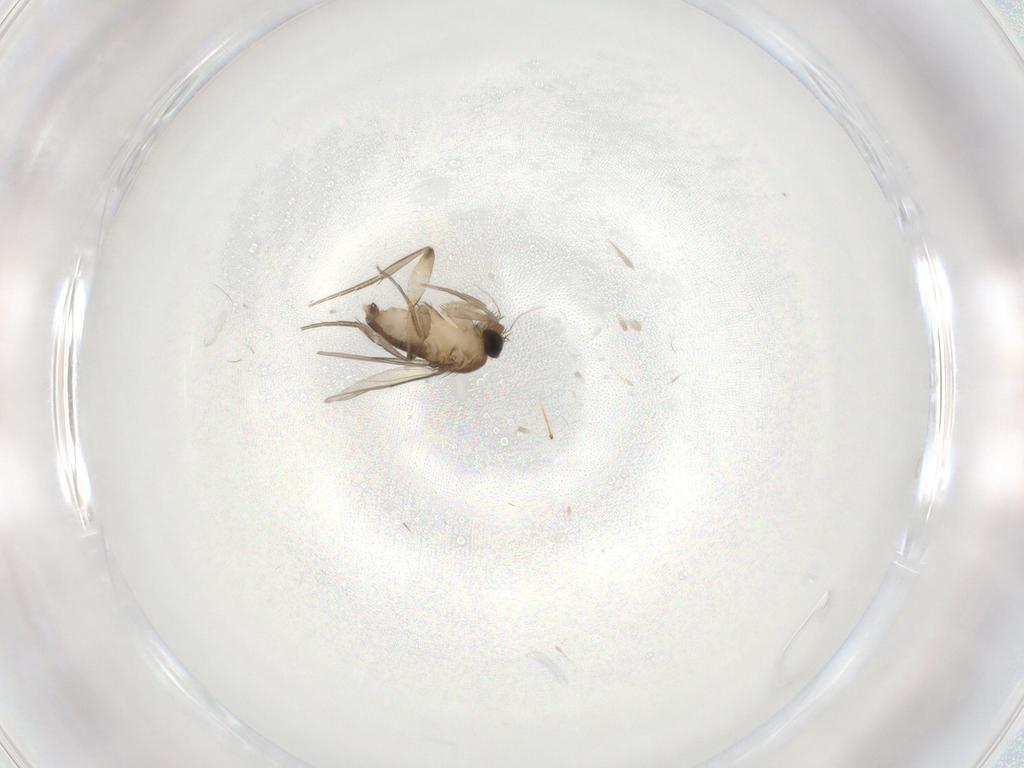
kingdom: Animalia
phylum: Arthropoda
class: Insecta
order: Diptera
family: Phoridae
